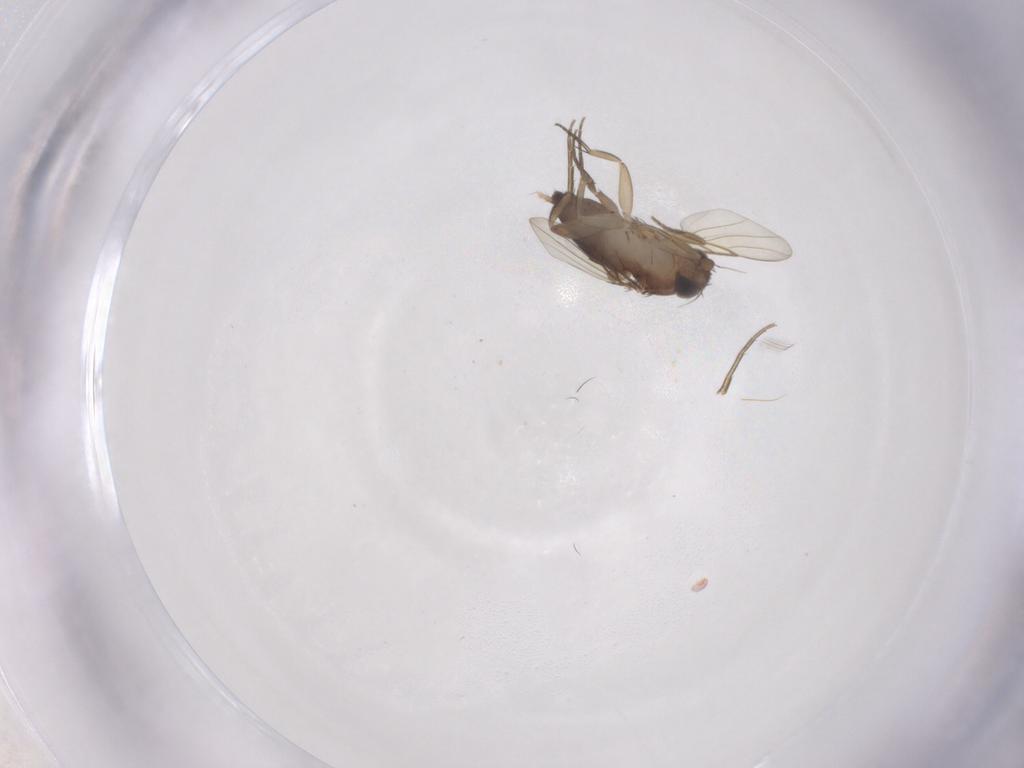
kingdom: Animalia
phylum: Arthropoda
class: Insecta
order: Diptera
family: Phoridae
